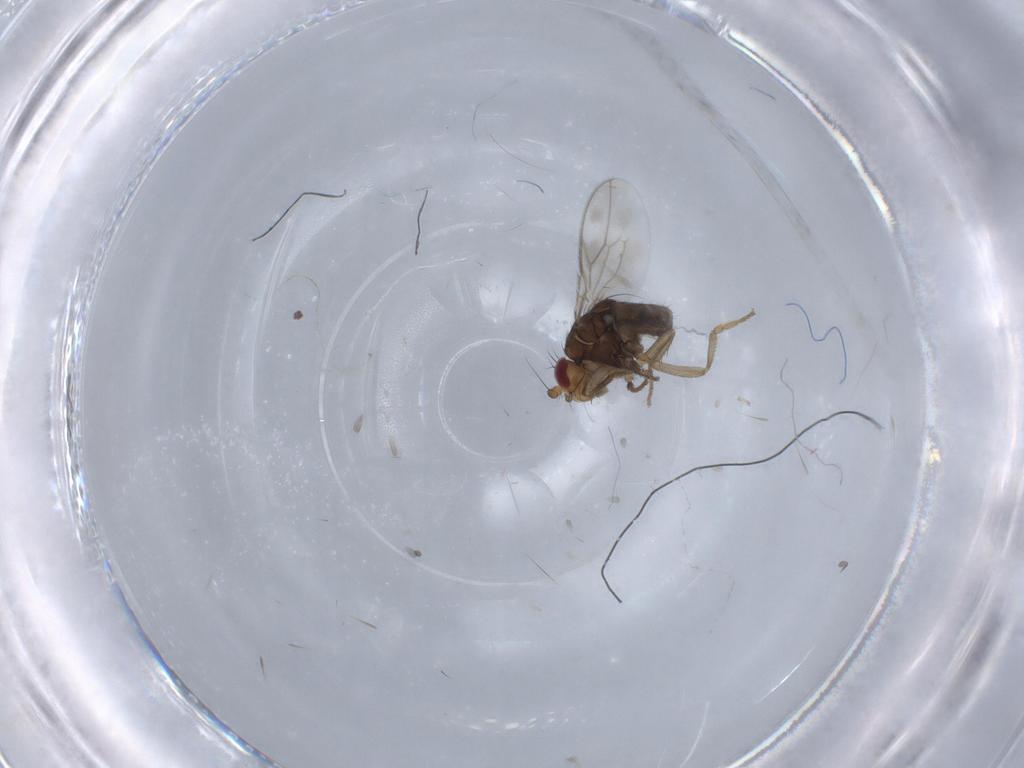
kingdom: Animalia
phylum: Arthropoda
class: Insecta
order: Diptera
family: Sphaeroceridae
